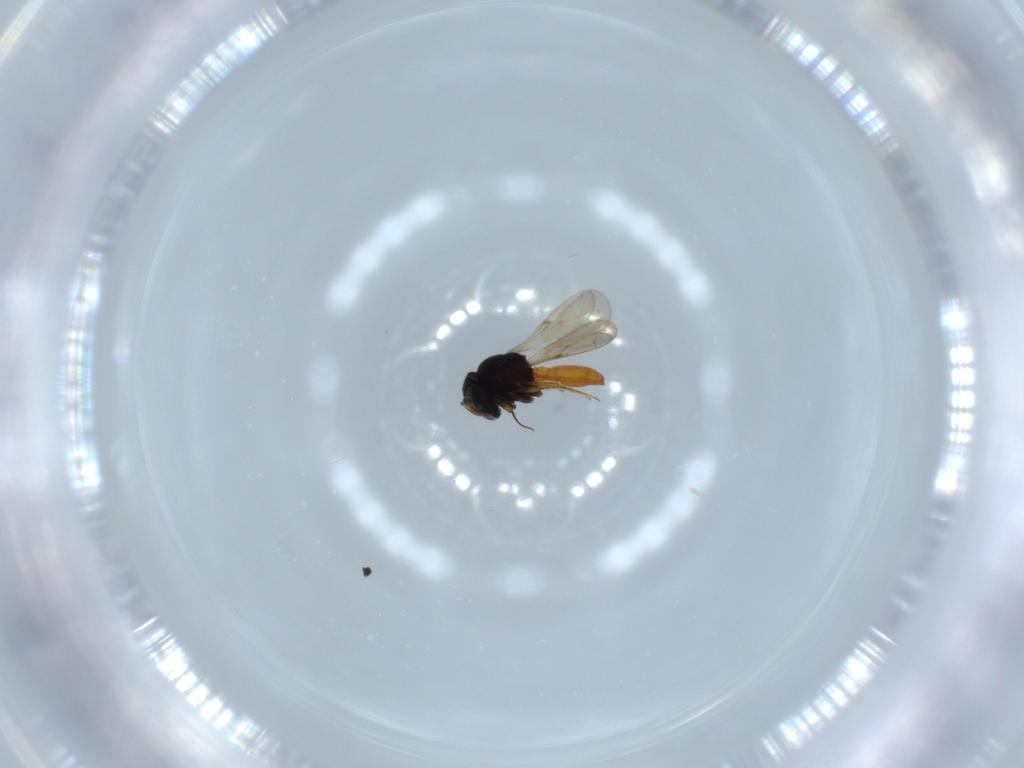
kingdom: Animalia
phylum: Arthropoda
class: Insecta
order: Hymenoptera
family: Scelionidae
